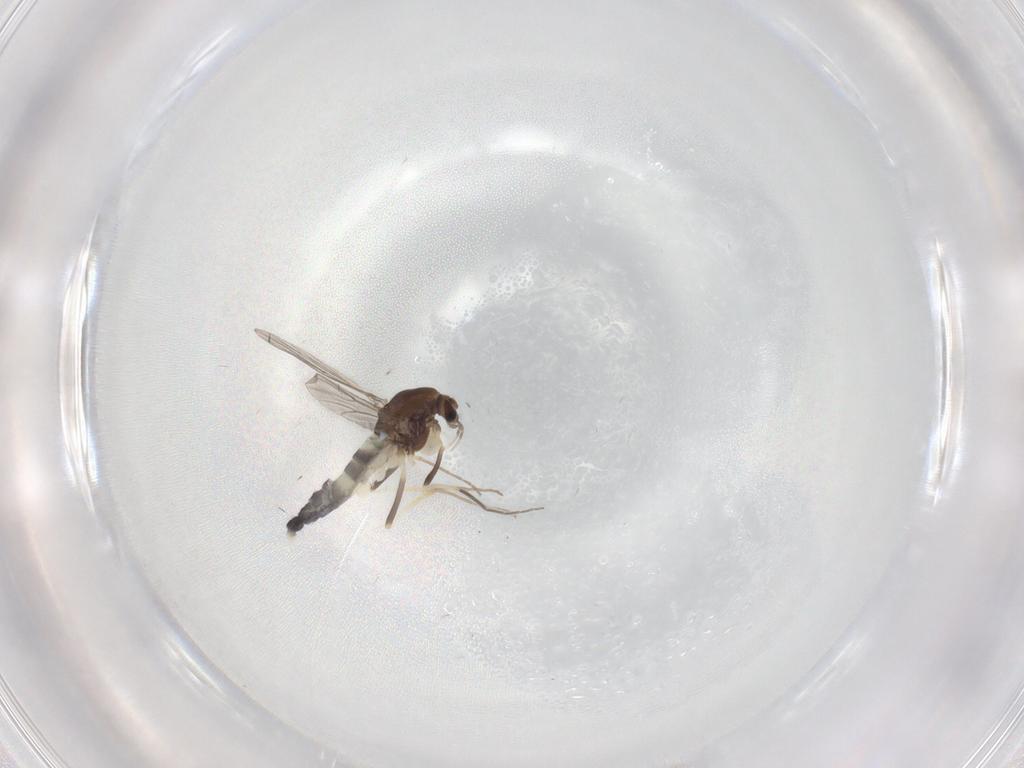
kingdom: Animalia
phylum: Arthropoda
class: Insecta
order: Diptera
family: Chironomidae
